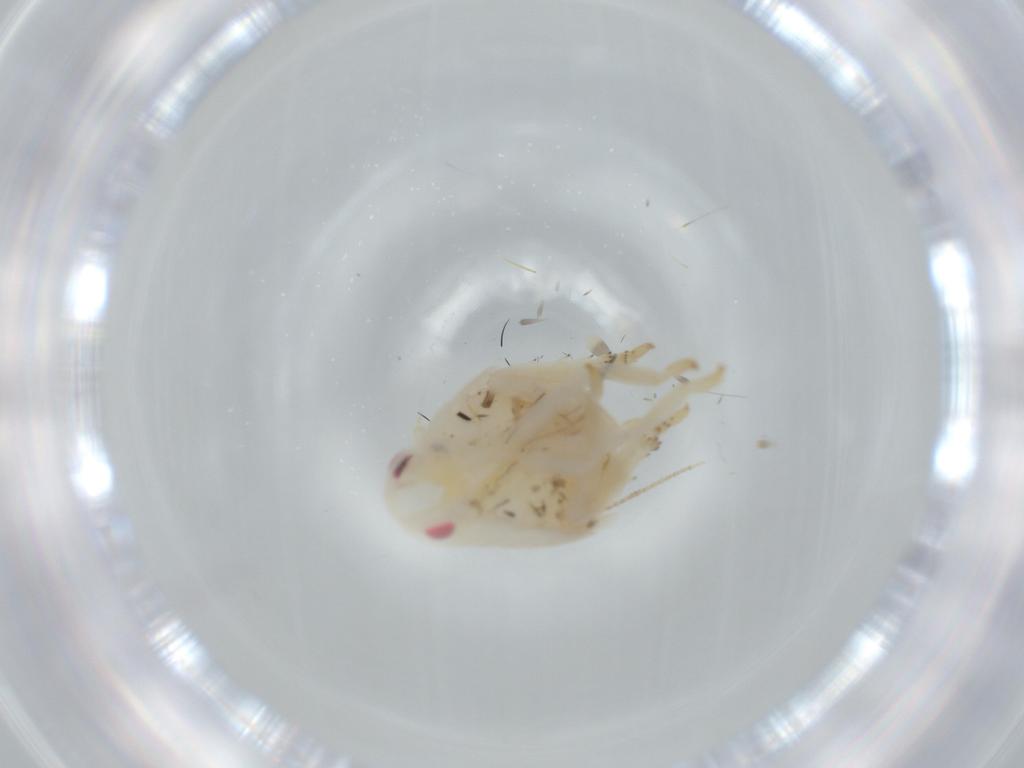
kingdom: Animalia
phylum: Arthropoda
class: Insecta
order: Hemiptera
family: Flatidae
